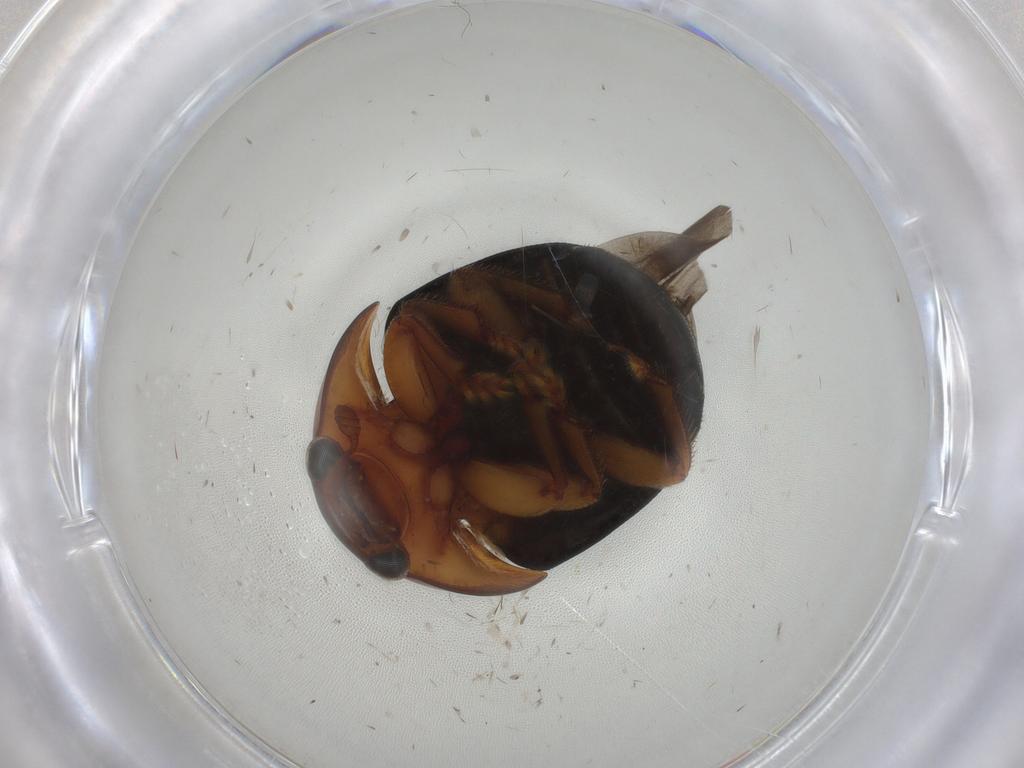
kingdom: Animalia
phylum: Arthropoda
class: Insecta
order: Coleoptera
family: Nitidulidae
